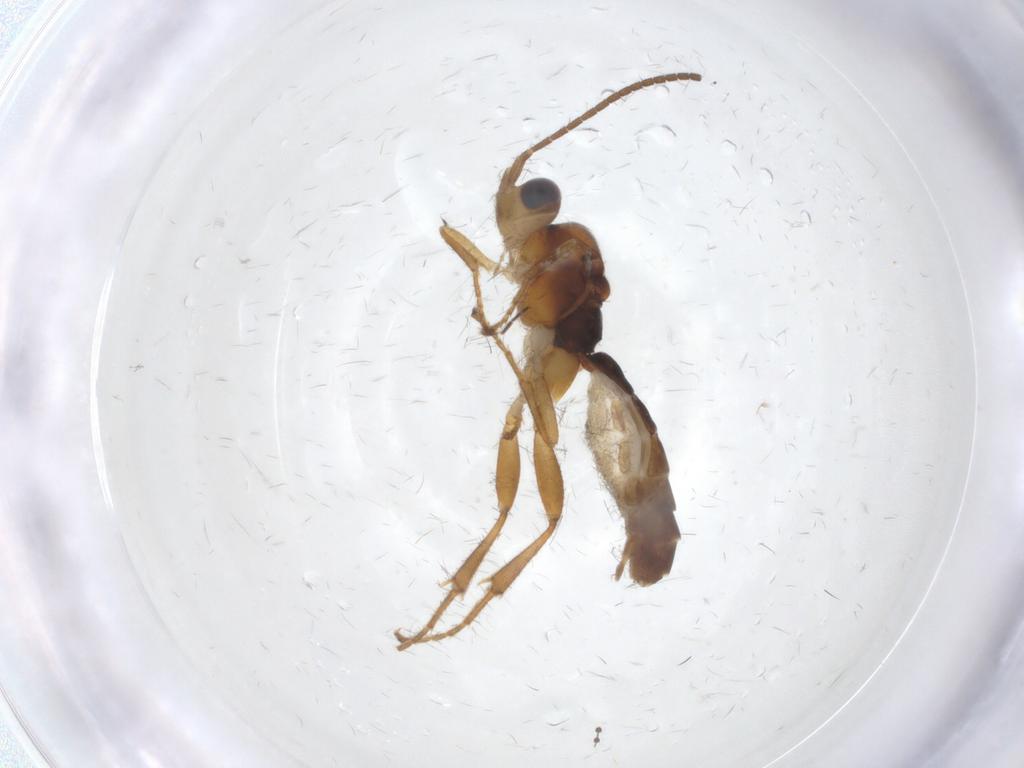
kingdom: Animalia
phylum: Arthropoda
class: Insecta
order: Hymenoptera
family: Ichneumonidae
